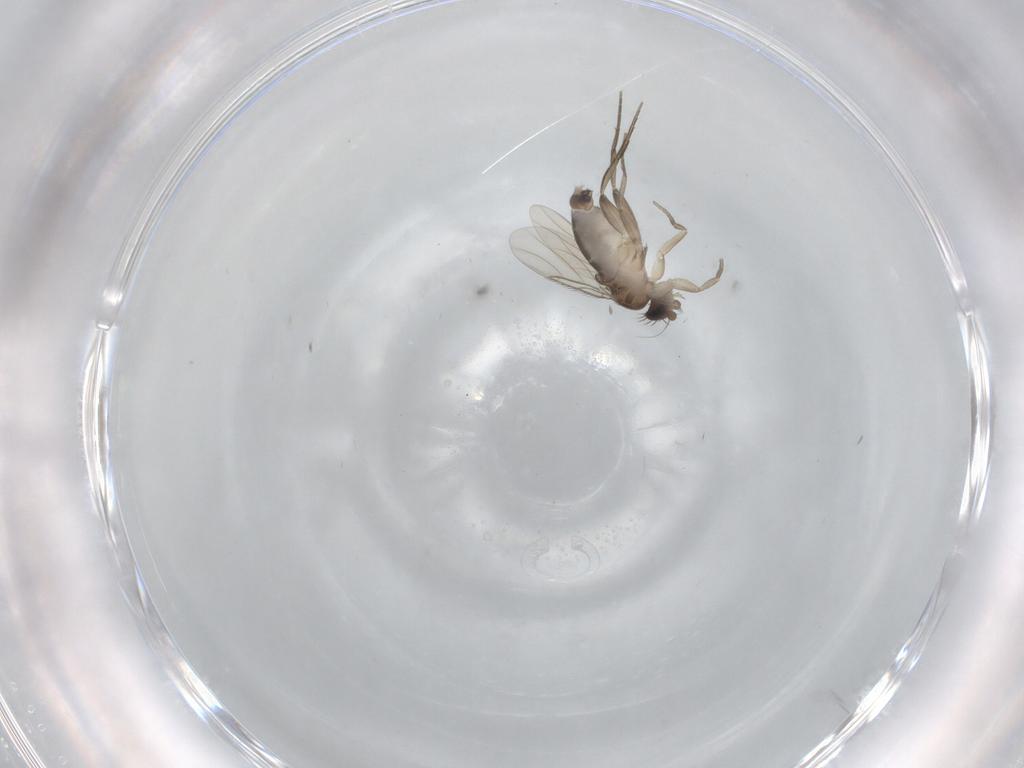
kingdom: Animalia
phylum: Arthropoda
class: Insecta
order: Diptera
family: Phoridae
